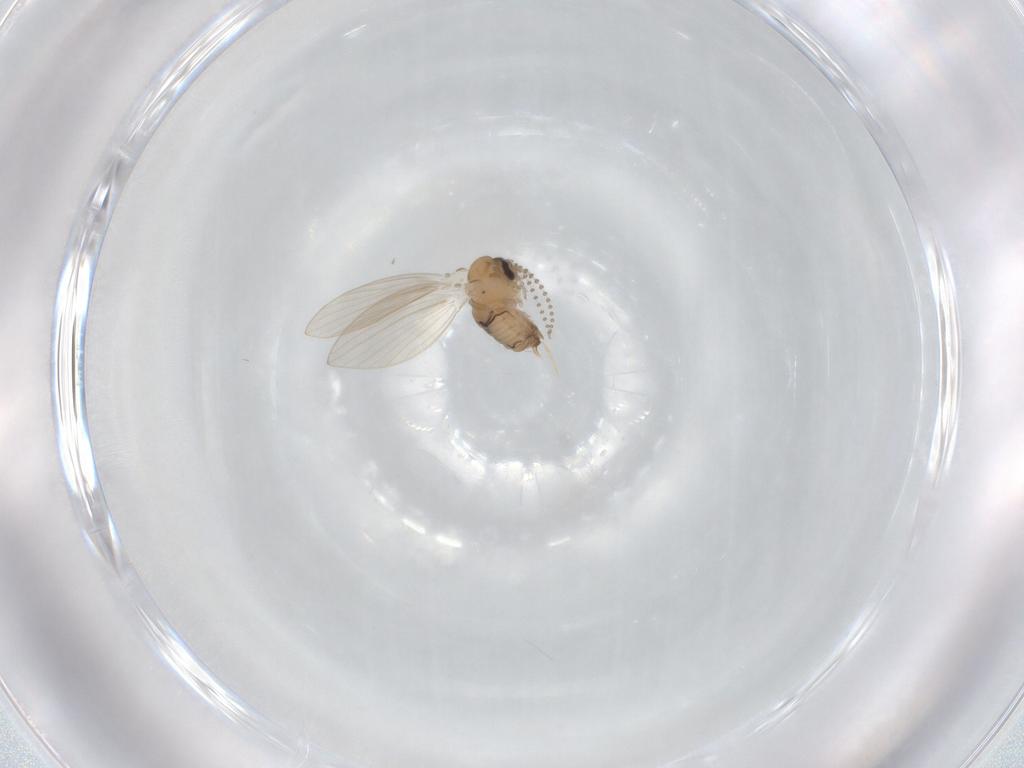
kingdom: Animalia
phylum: Arthropoda
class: Insecta
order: Diptera
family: Psychodidae
